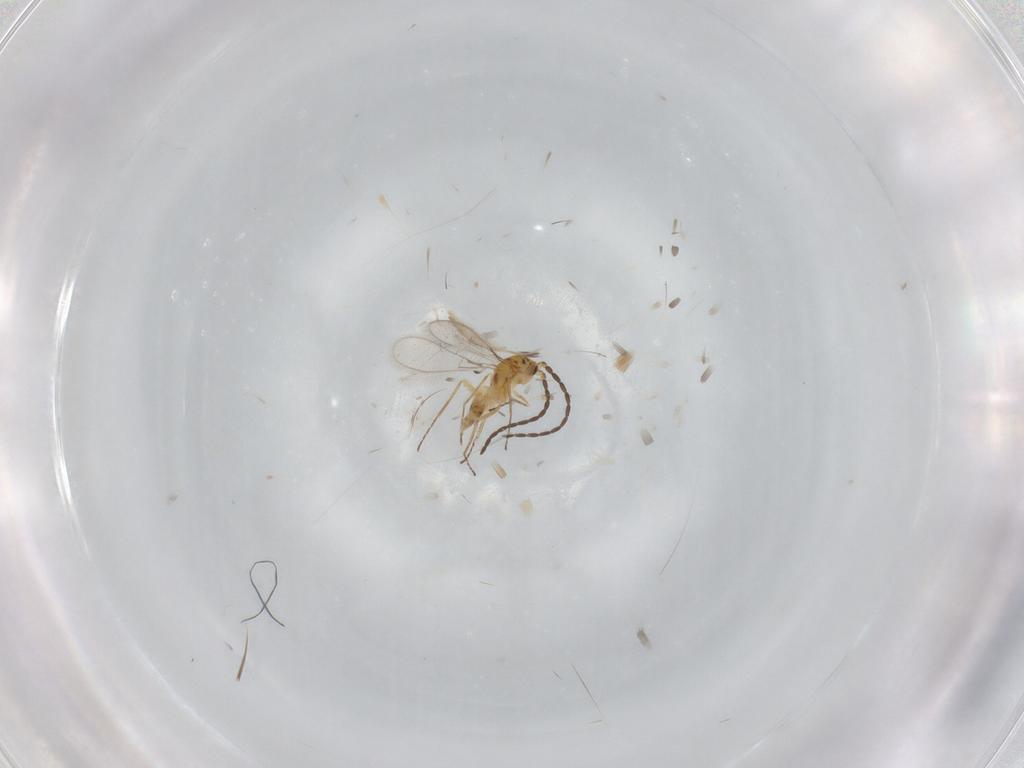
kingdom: Animalia
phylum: Arthropoda
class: Insecta
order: Hymenoptera
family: Mymaridae
